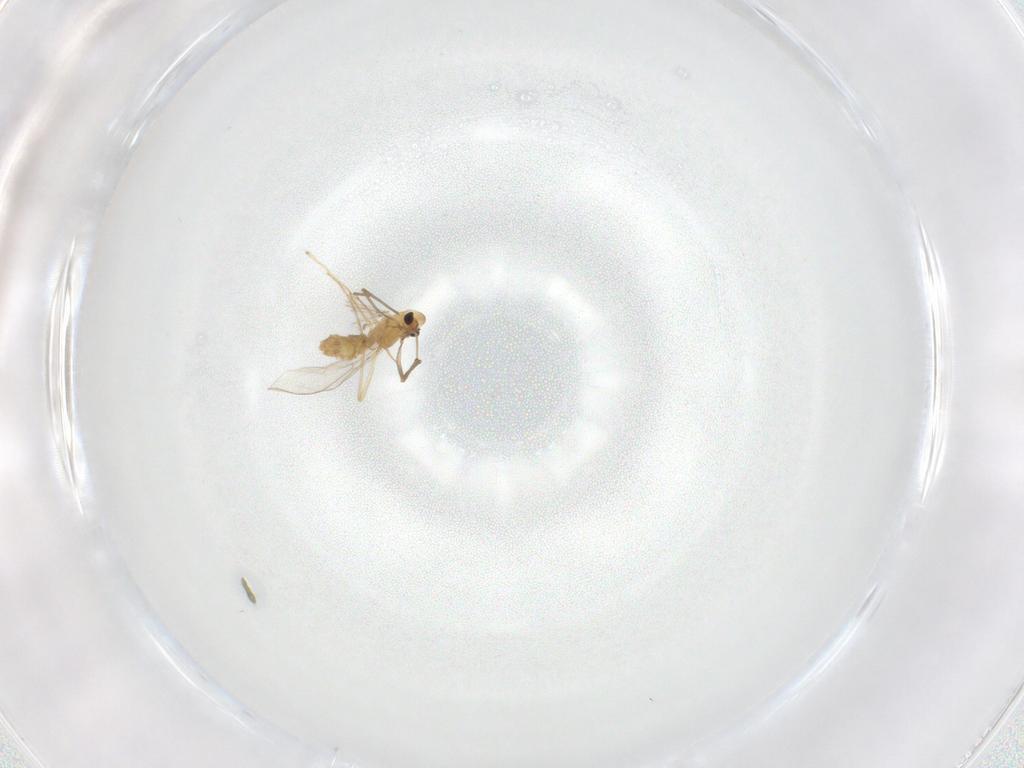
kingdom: Animalia
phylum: Arthropoda
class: Insecta
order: Diptera
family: Chironomidae
